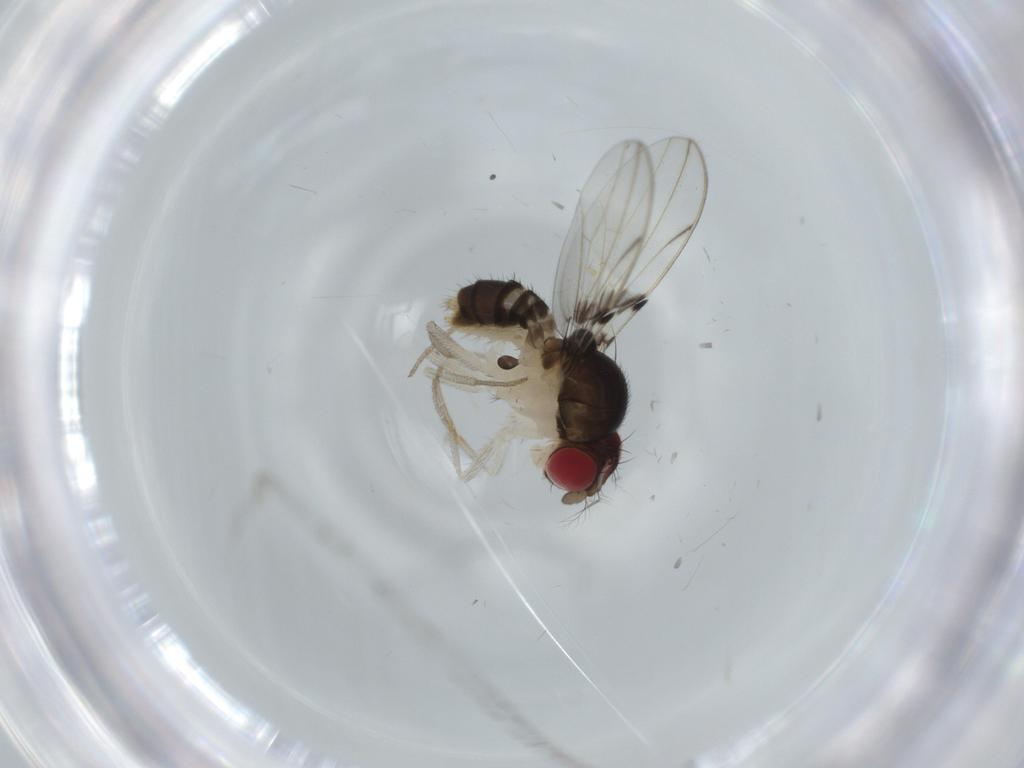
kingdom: Animalia
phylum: Arthropoda
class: Insecta
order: Diptera
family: Drosophilidae
